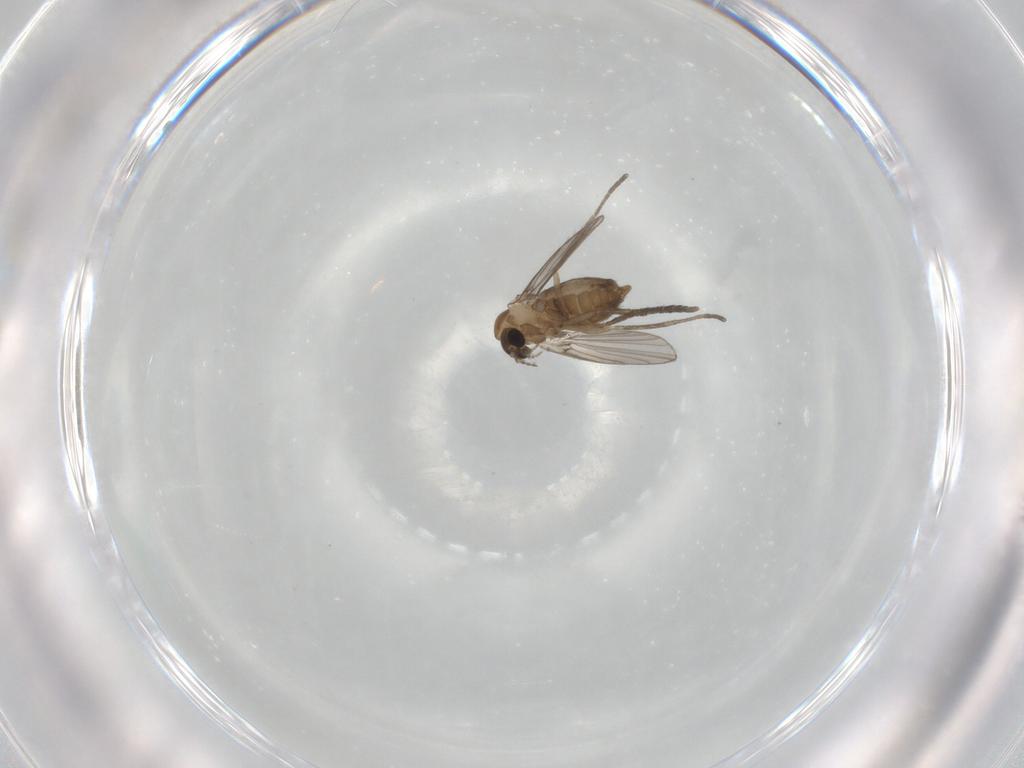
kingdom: Animalia
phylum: Arthropoda
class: Insecta
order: Diptera
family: Psychodidae
